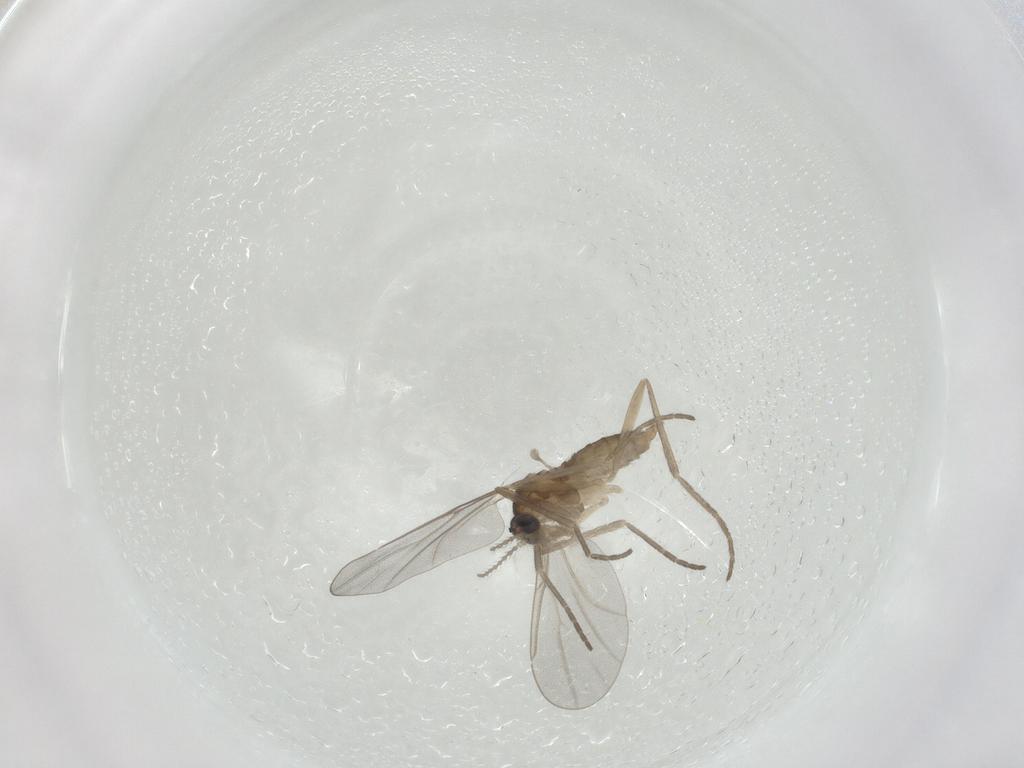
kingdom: Animalia
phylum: Arthropoda
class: Insecta
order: Diptera
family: Cecidomyiidae
